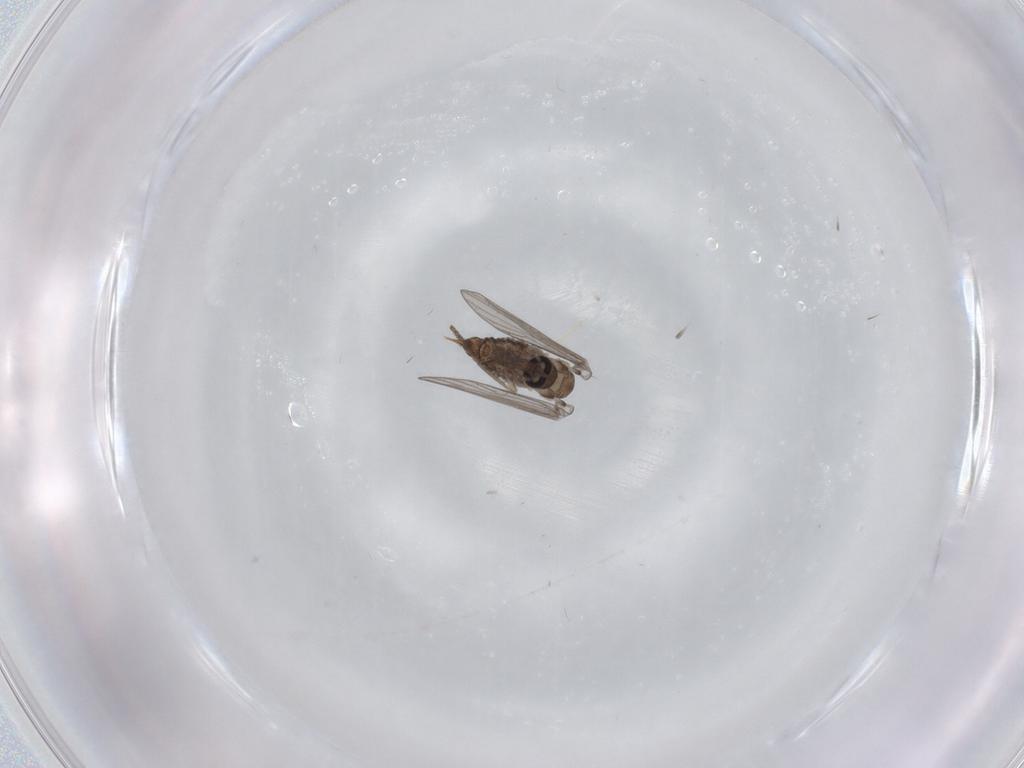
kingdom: Animalia
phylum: Arthropoda
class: Insecta
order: Diptera
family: Psychodidae
